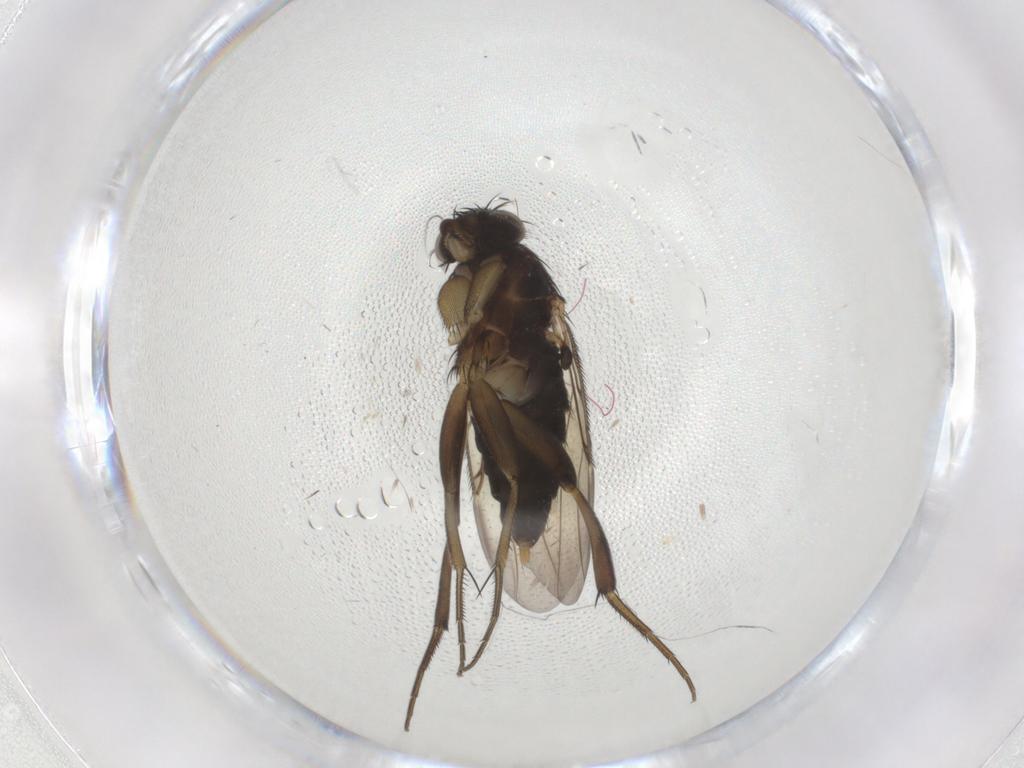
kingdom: Animalia
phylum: Arthropoda
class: Insecta
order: Diptera
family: Phoridae
